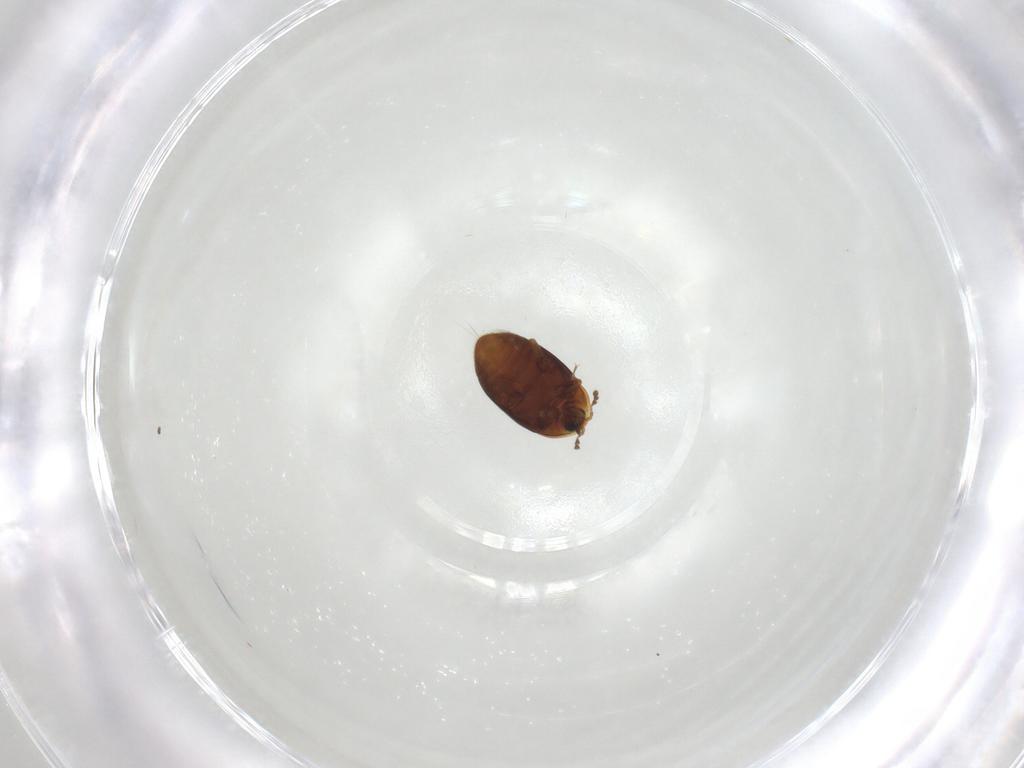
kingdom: Animalia
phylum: Arthropoda
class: Insecta
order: Coleoptera
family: Corylophidae
